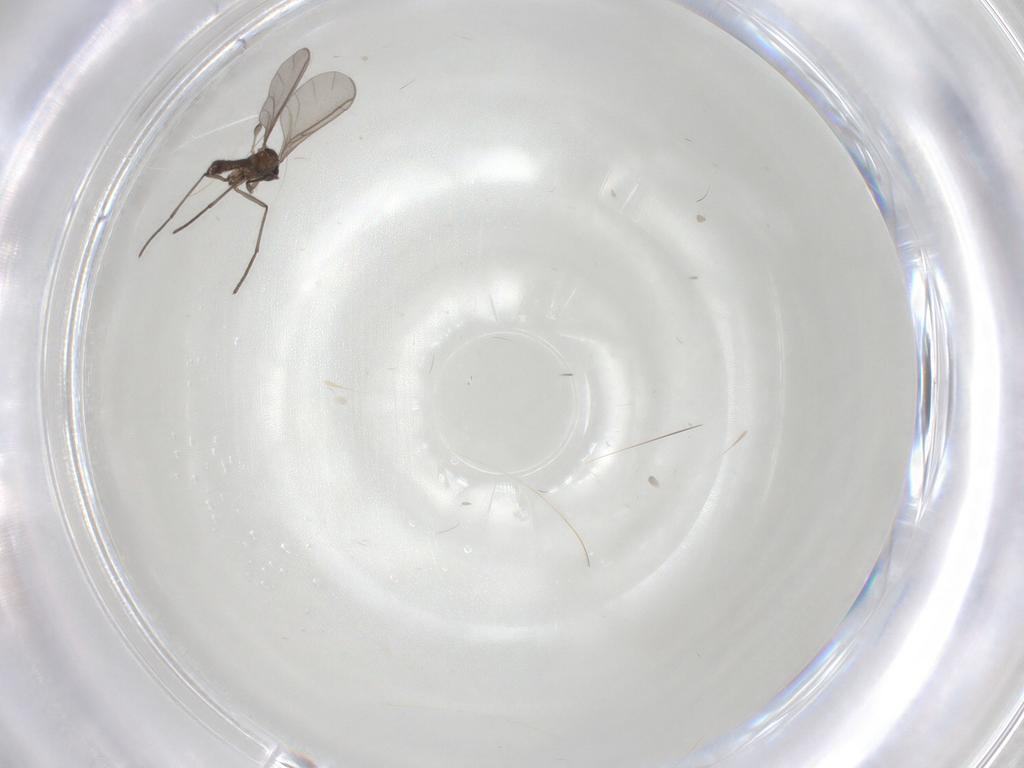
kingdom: Animalia
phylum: Arthropoda
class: Insecta
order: Diptera
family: Sciaridae
